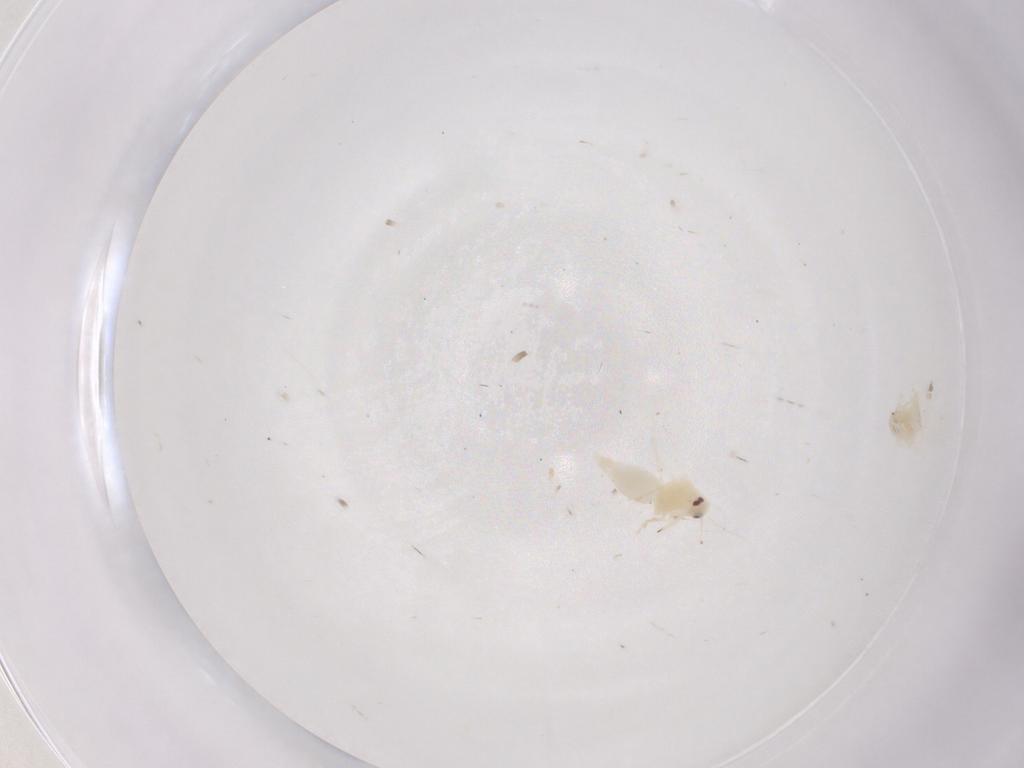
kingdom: Animalia
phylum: Arthropoda
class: Insecta
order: Hemiptera
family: Aleyrodidae
